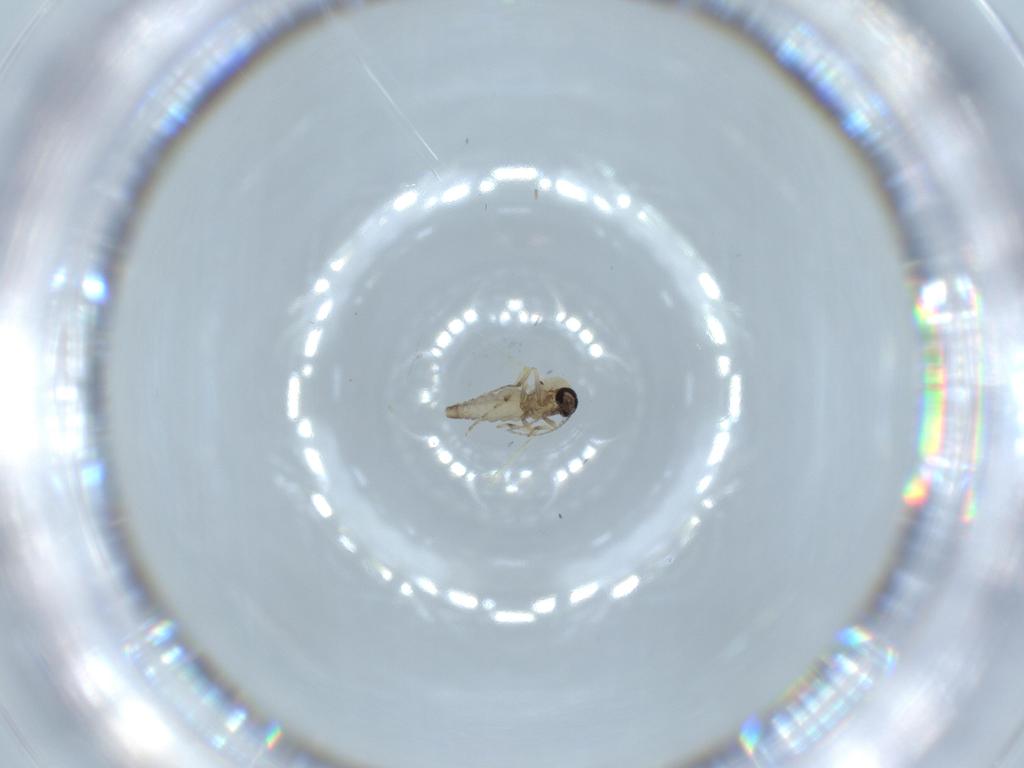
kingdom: Animalia
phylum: Arthropoda
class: Insecta
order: Diptera
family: Ceratopogonidae
